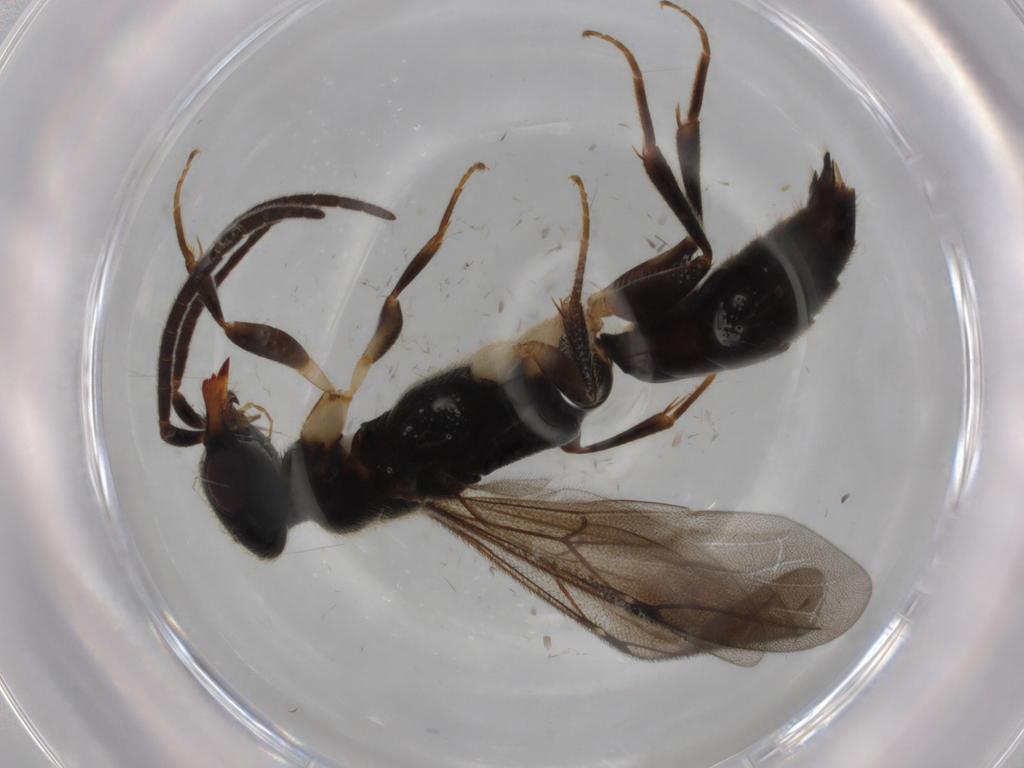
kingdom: Animalia
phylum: Arthropoda
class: Insecta
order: Hymenoptera
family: Bethylidae
